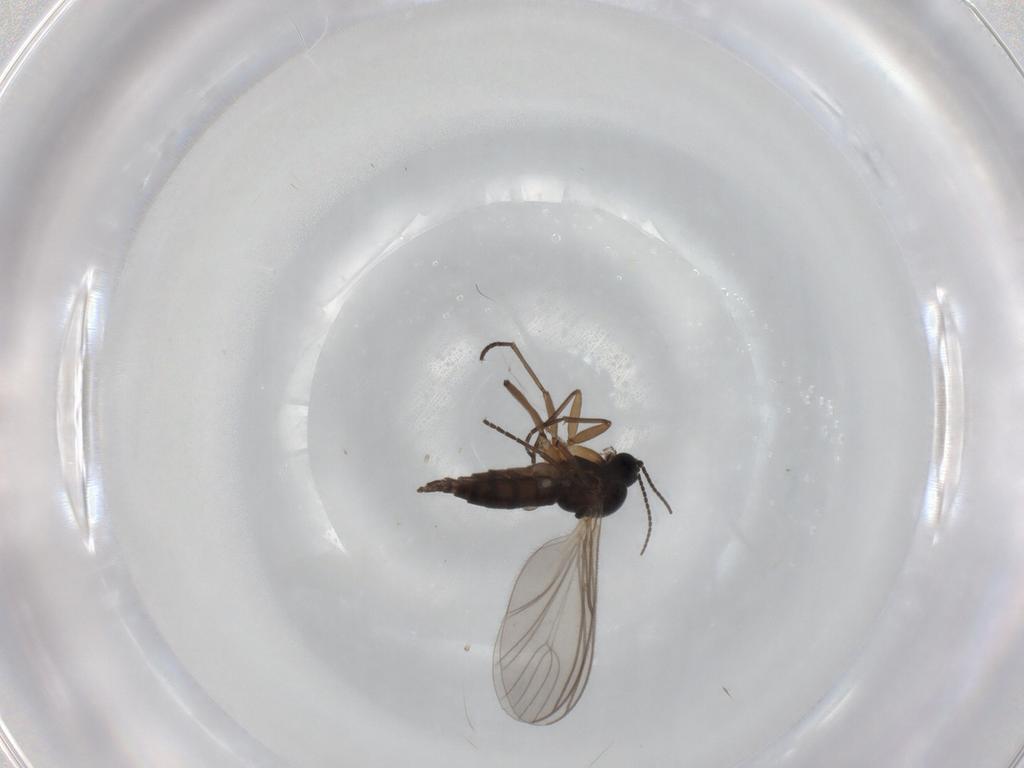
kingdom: Animalia
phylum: Arthropoda
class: Insecta
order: Diptera
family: Sciaridae
